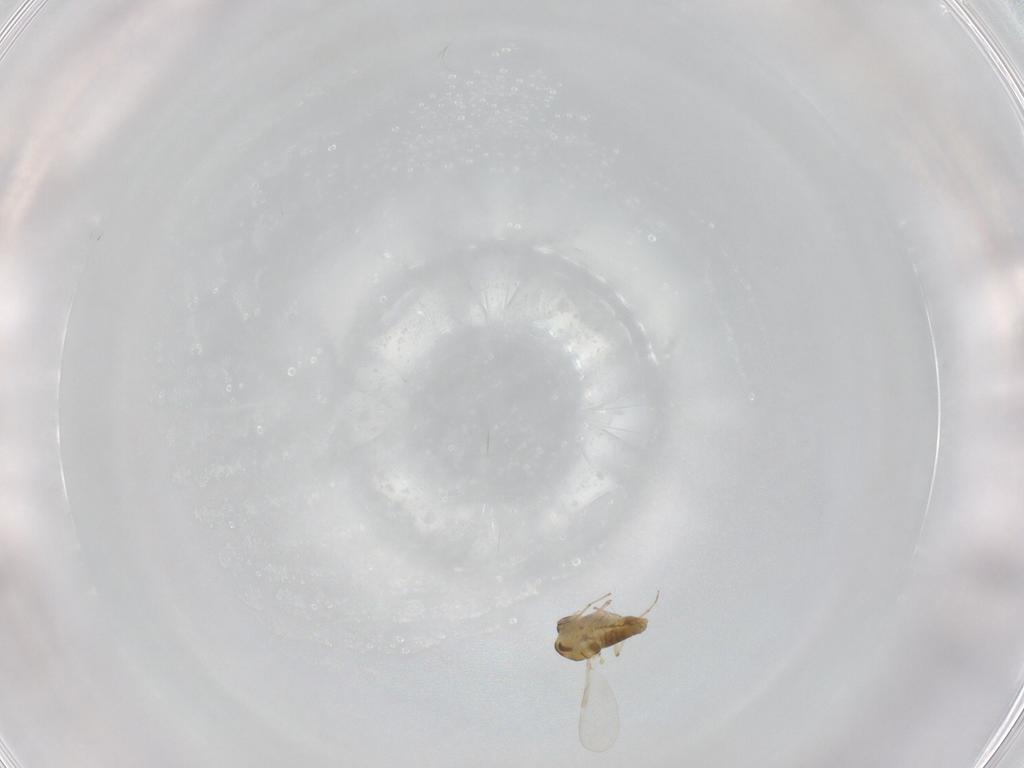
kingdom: Animalia
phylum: Arthropoda
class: Insecta
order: Diptera
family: Chironomidae
